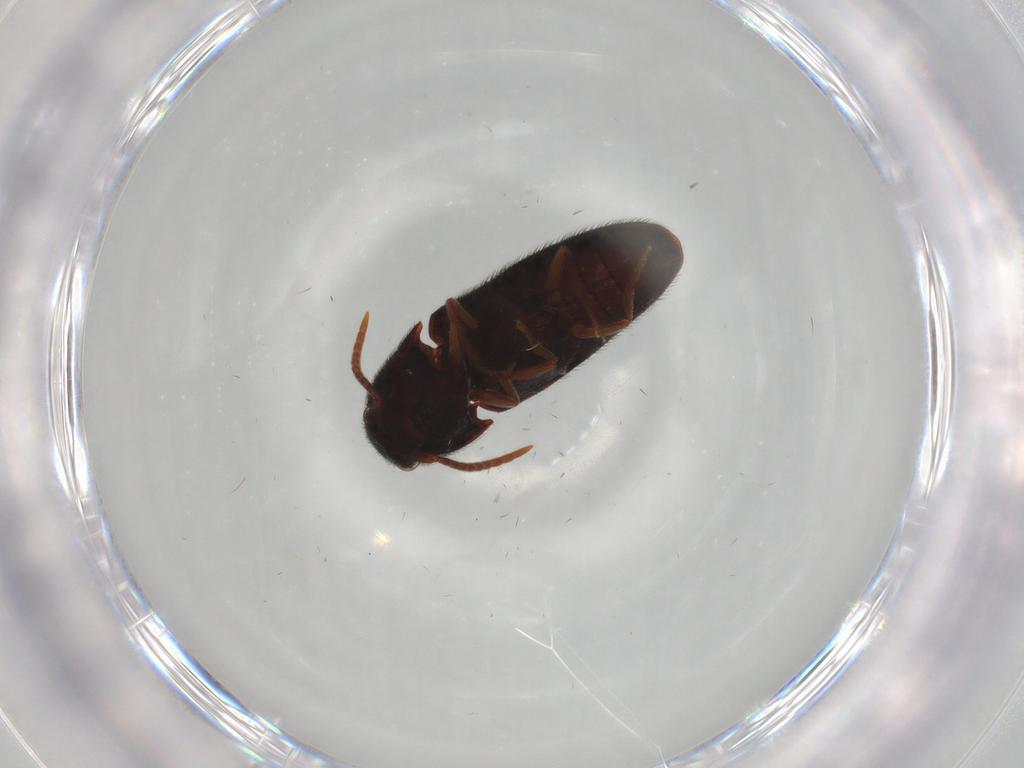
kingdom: Animalia
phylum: Arthropoda
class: Insecta
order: Coleoptera
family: Eucnemidae
